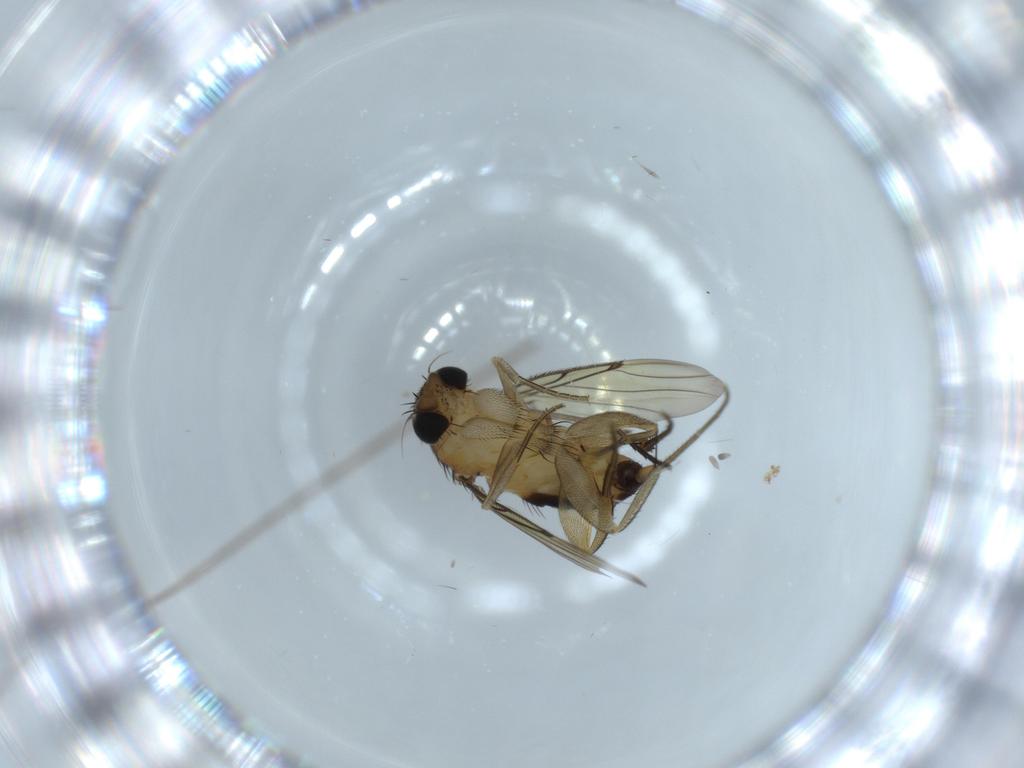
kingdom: Animalia
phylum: Arthropoda
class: Insecta
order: Diptera
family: Phoridae
